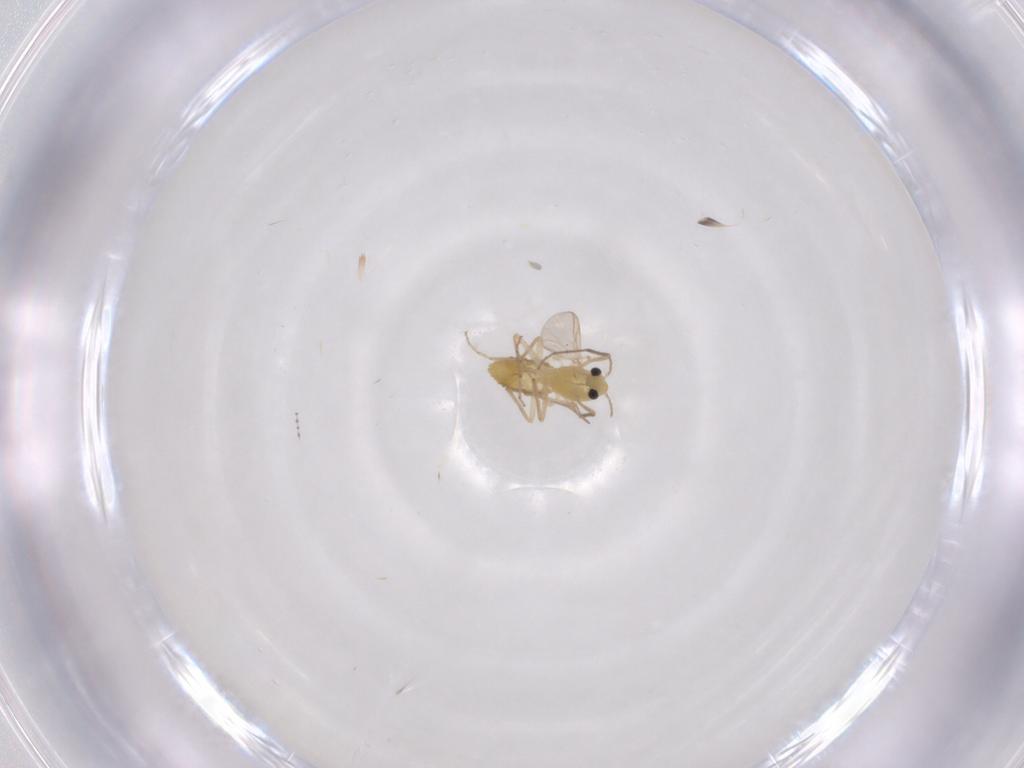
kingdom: Animalia
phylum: Arthropoda
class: Insecta
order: Diptera
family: Chironomidae
